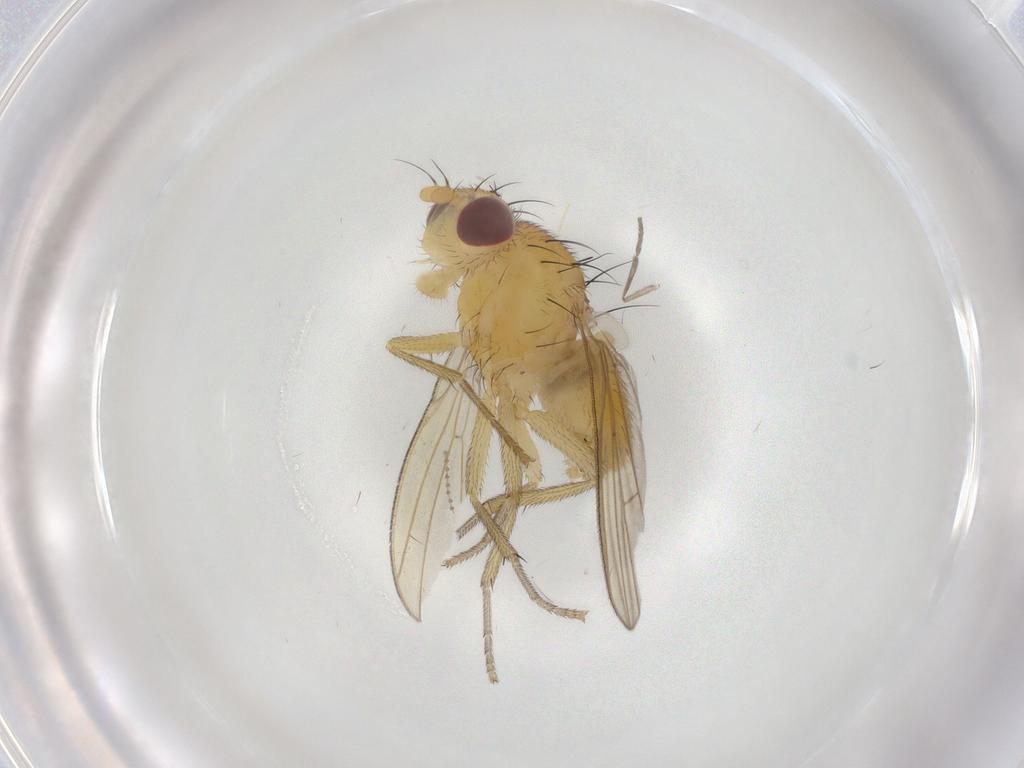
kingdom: Animalia
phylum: Arthropoda
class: Insecta
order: Diptera
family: Lauxaniidae
